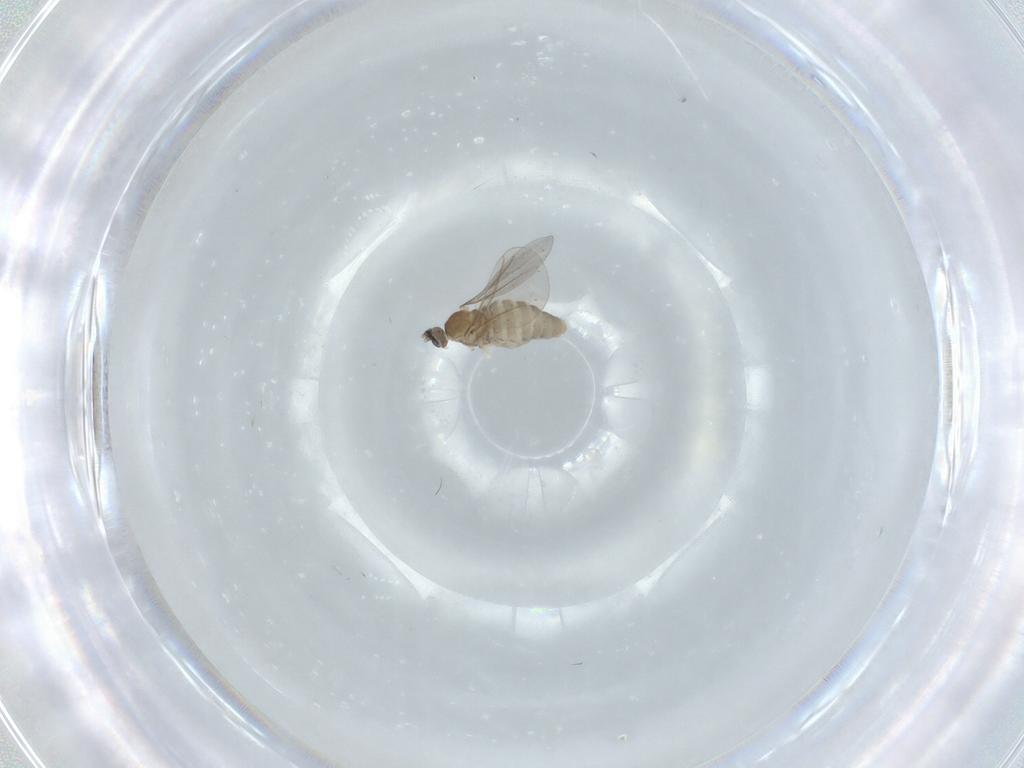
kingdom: Animalia
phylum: Arthropoda
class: Insecta
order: Diptera
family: Cecidomyiidae
